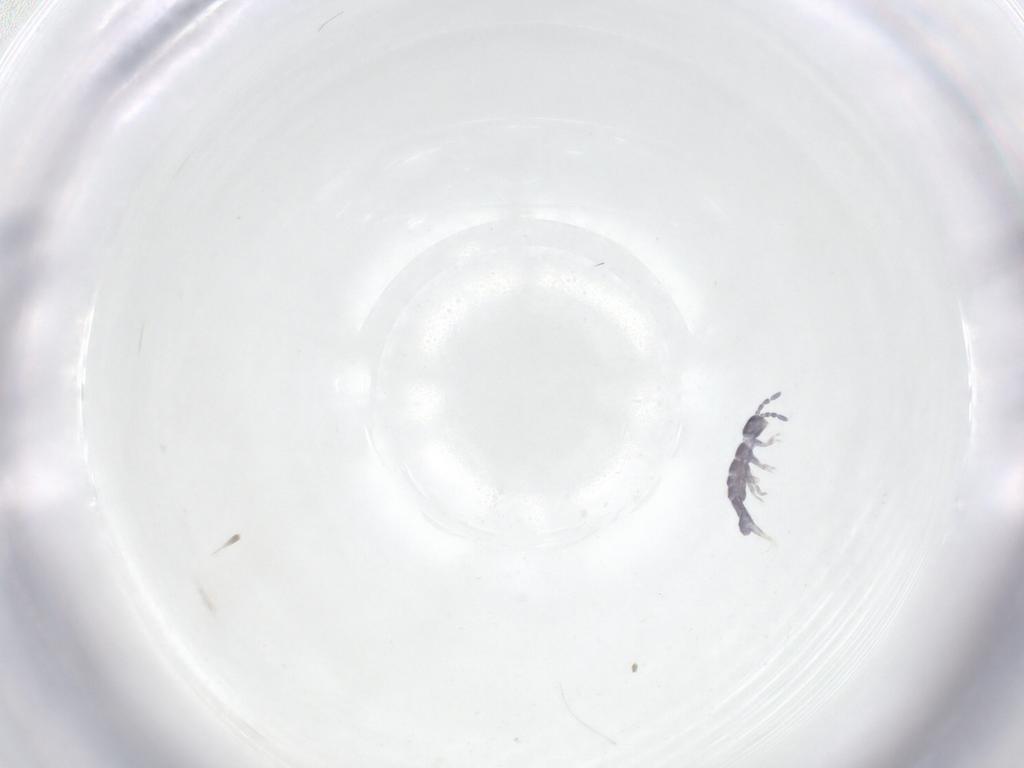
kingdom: Animalia
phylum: Arthropoda
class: Collembola
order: Entomobryomorpha
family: Isotomidae
